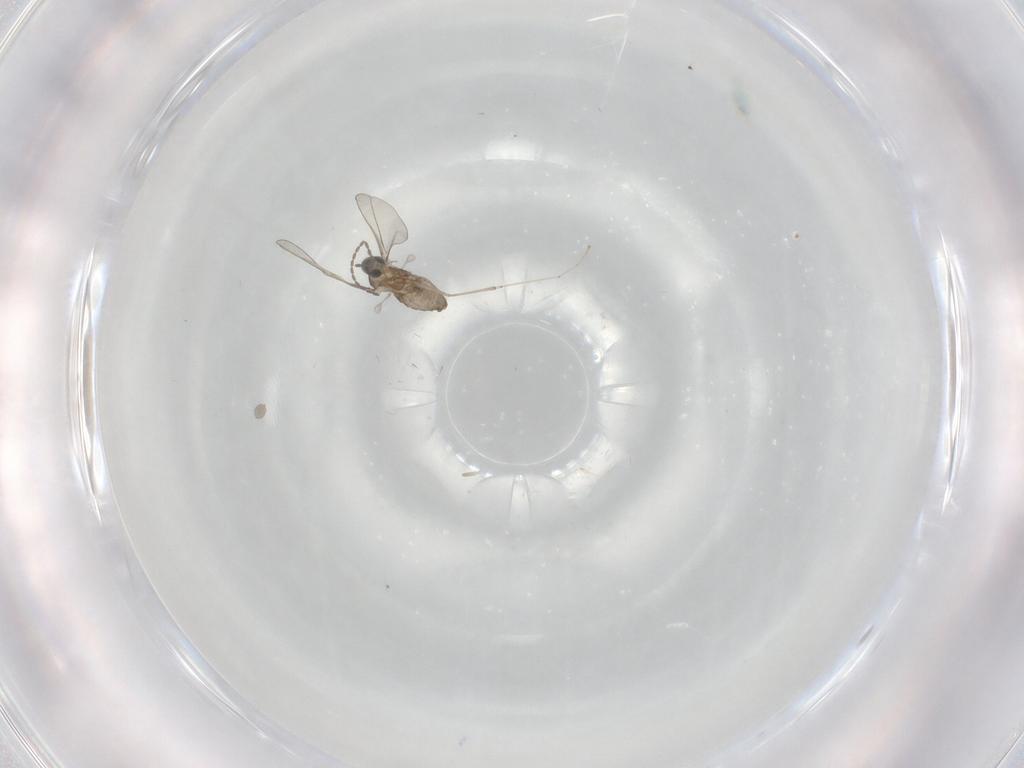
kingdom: Animalia
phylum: Arthropoda
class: Insecta
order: Diptera
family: Cecidomyiidae
